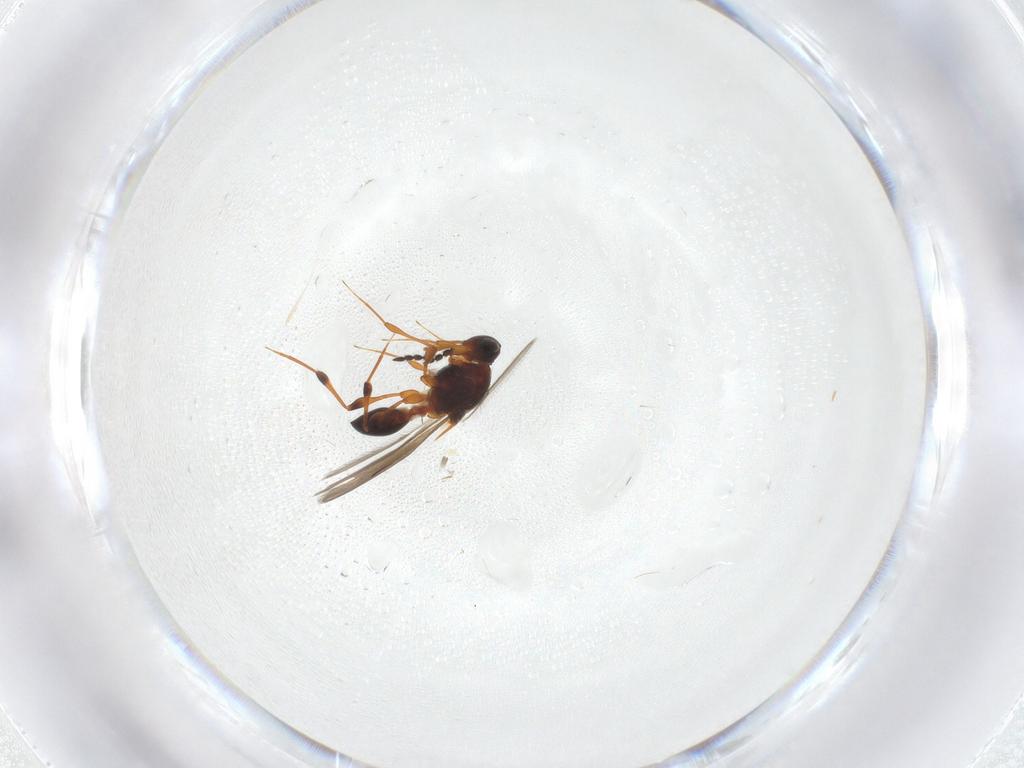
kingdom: Animalia
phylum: Arthropoda
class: Insecta
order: Hymenoptera
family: Platygastridae
